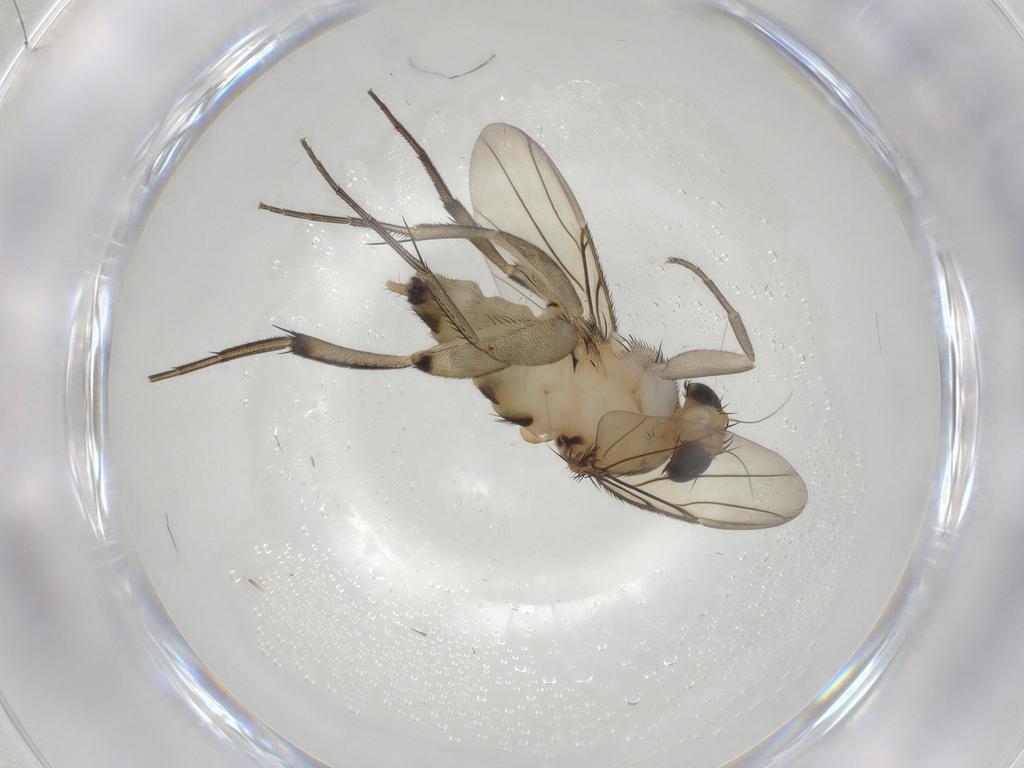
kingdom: Animalia
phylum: Arthropoda
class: Insecta
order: Diptera
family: Phoridae
